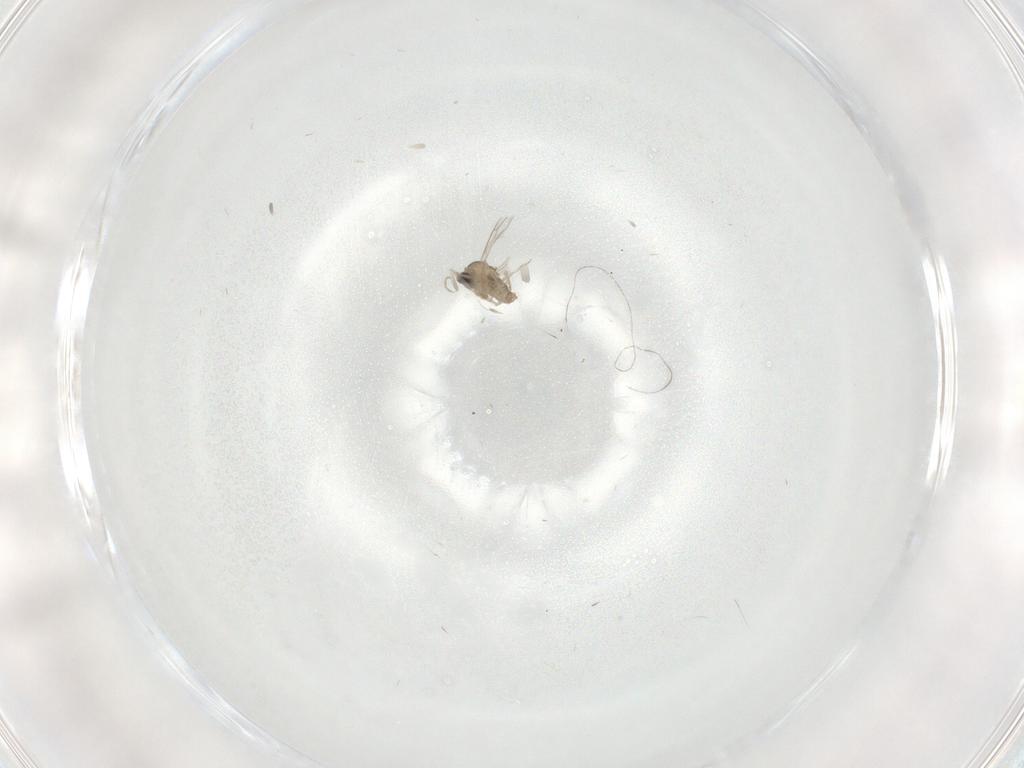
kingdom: Animalia
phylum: Arthropoda
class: Insecta
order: Diptera
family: Cecidomyiidae
